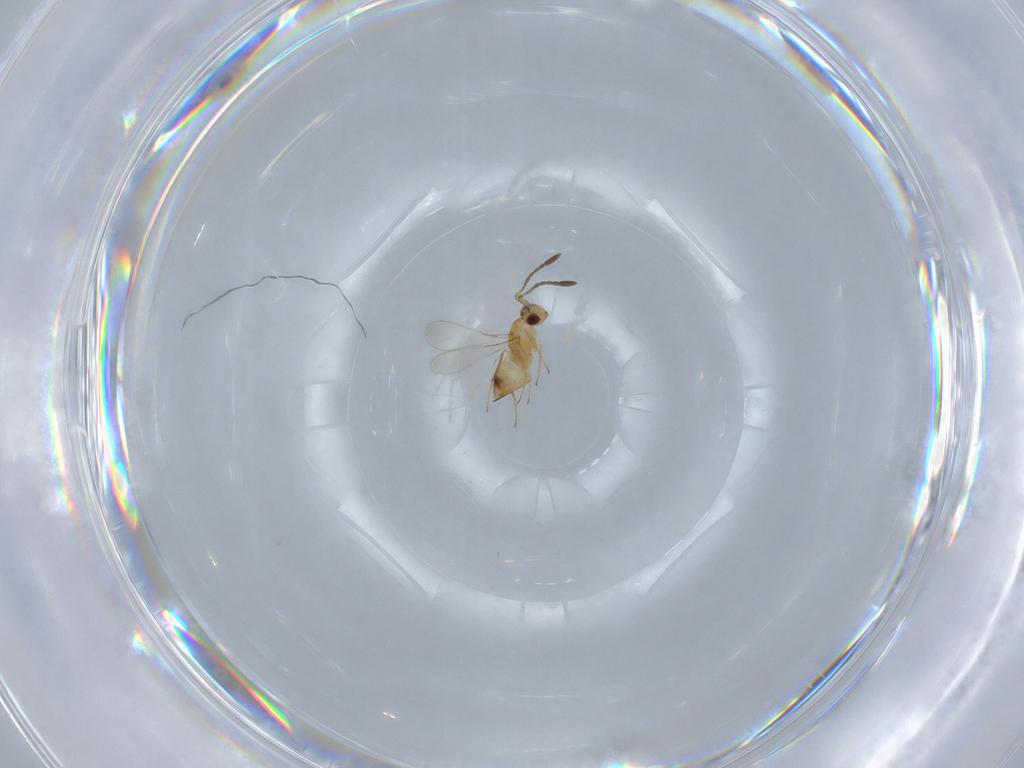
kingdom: Animalia
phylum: Arthropoda
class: Insecta
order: Hymenoptera
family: Mymaridae
